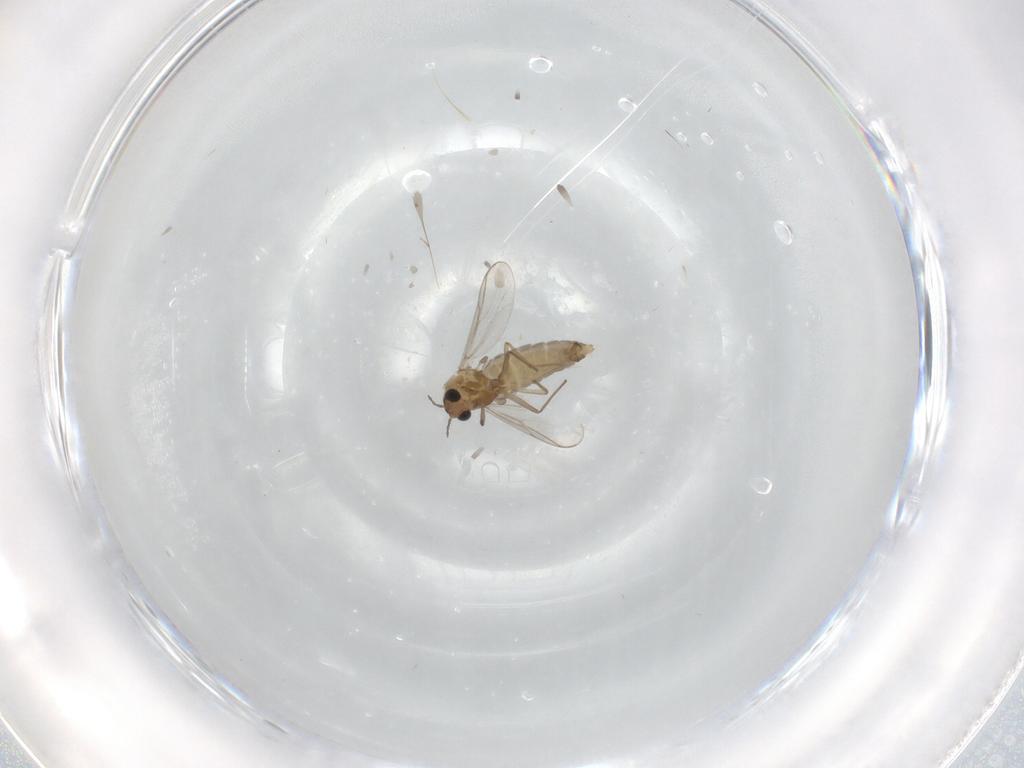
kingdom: Animalia
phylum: Arthropoda
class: Insecta
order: Diptera
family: Chironomidae
